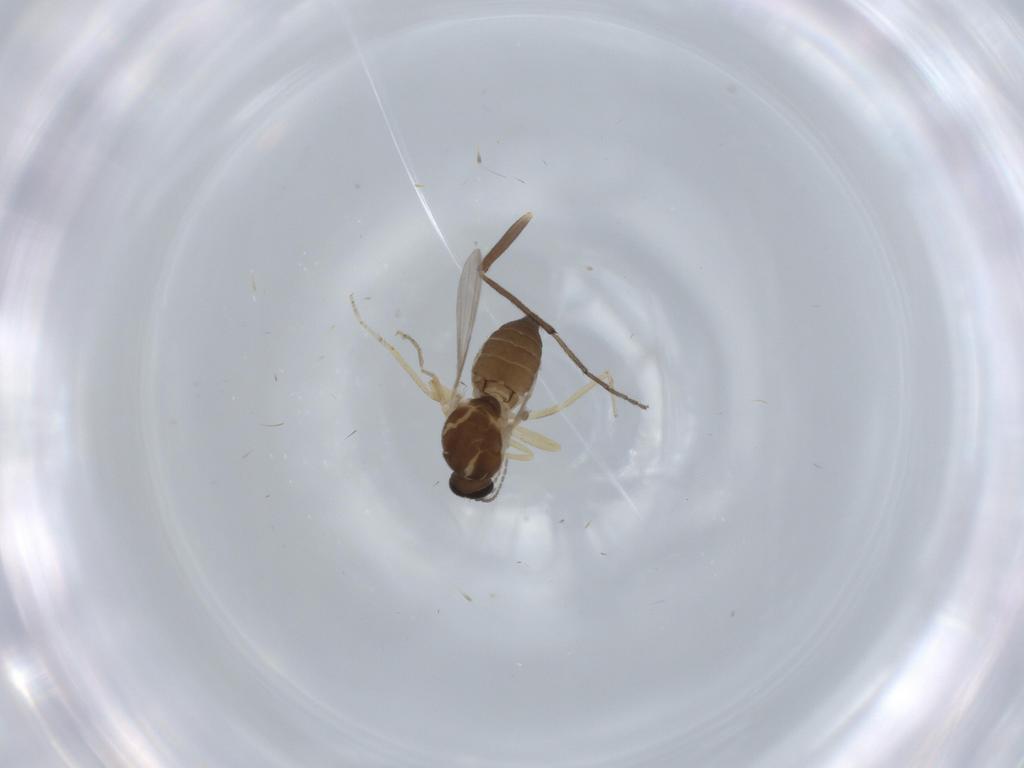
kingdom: Animalia
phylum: Arthropoda
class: Insecta
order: Diptera
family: Ceratopogonidae
